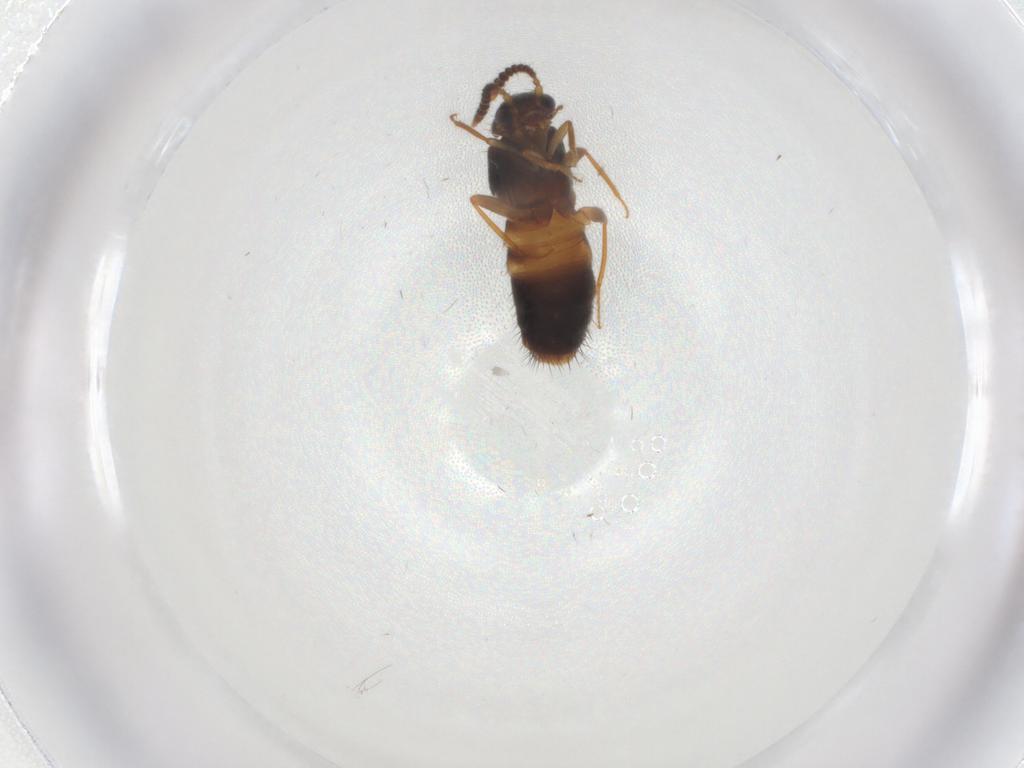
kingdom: Animalia
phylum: Arthropoda
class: Insecta
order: Coleoptera
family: Staphylinidae
